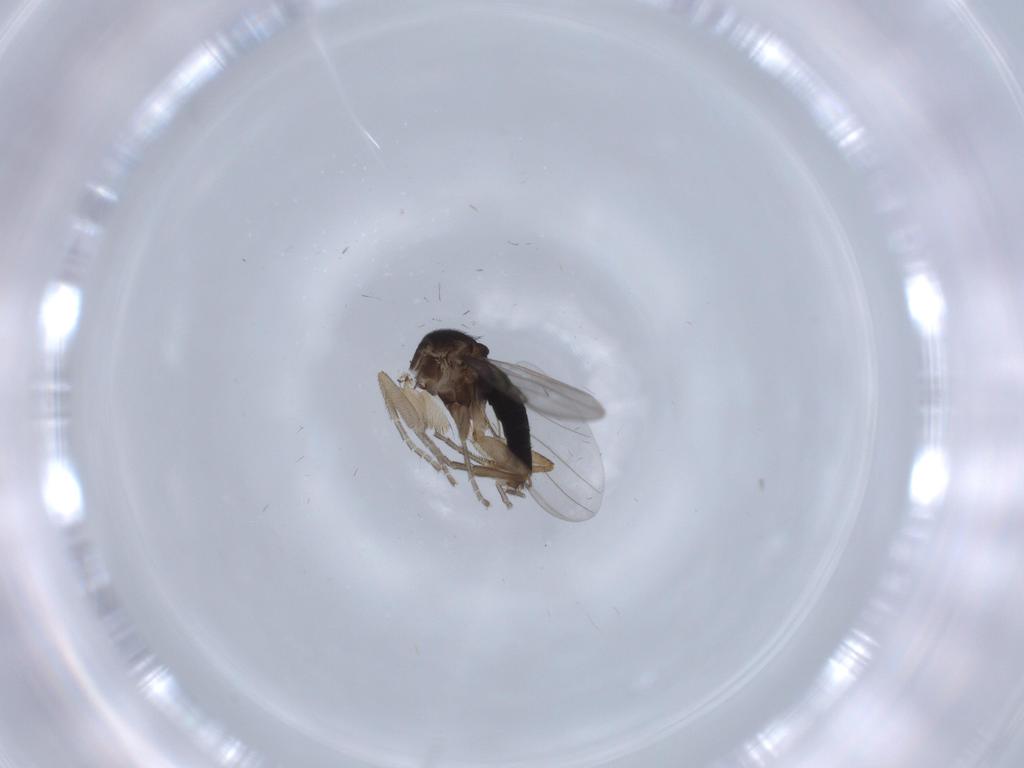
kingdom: Animalia
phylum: Arthropoda
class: Insecta
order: Diptera
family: Phoridae
